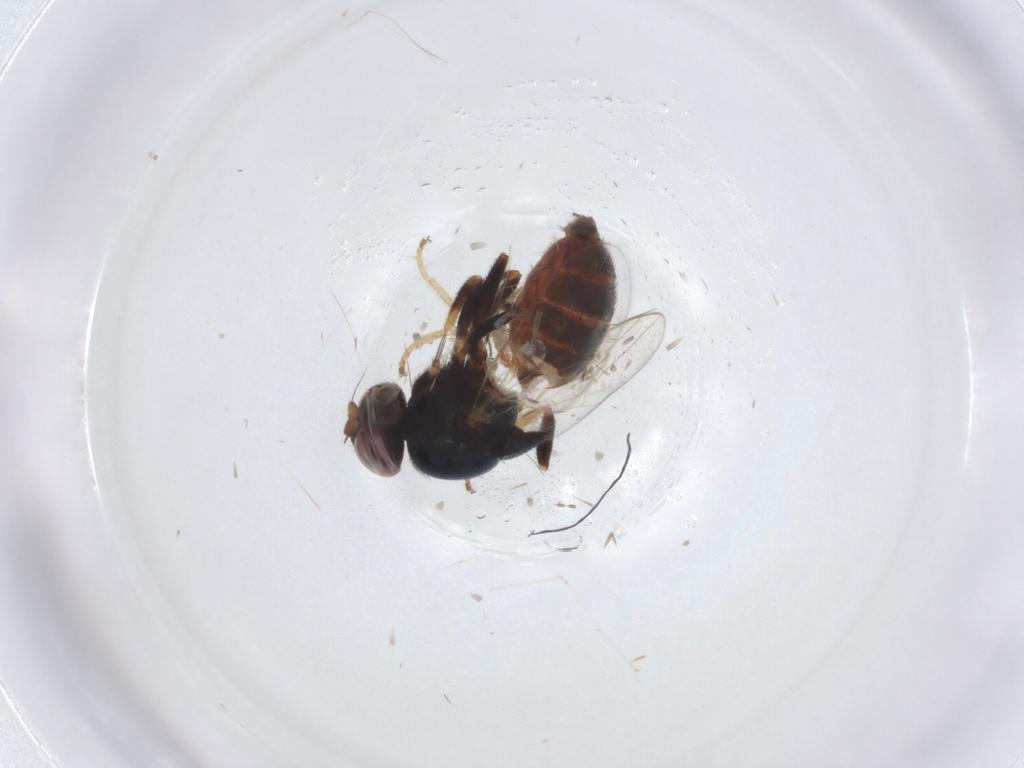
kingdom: Animalia
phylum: Arthropoda
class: Insecta
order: Diptera
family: Chloropidae
